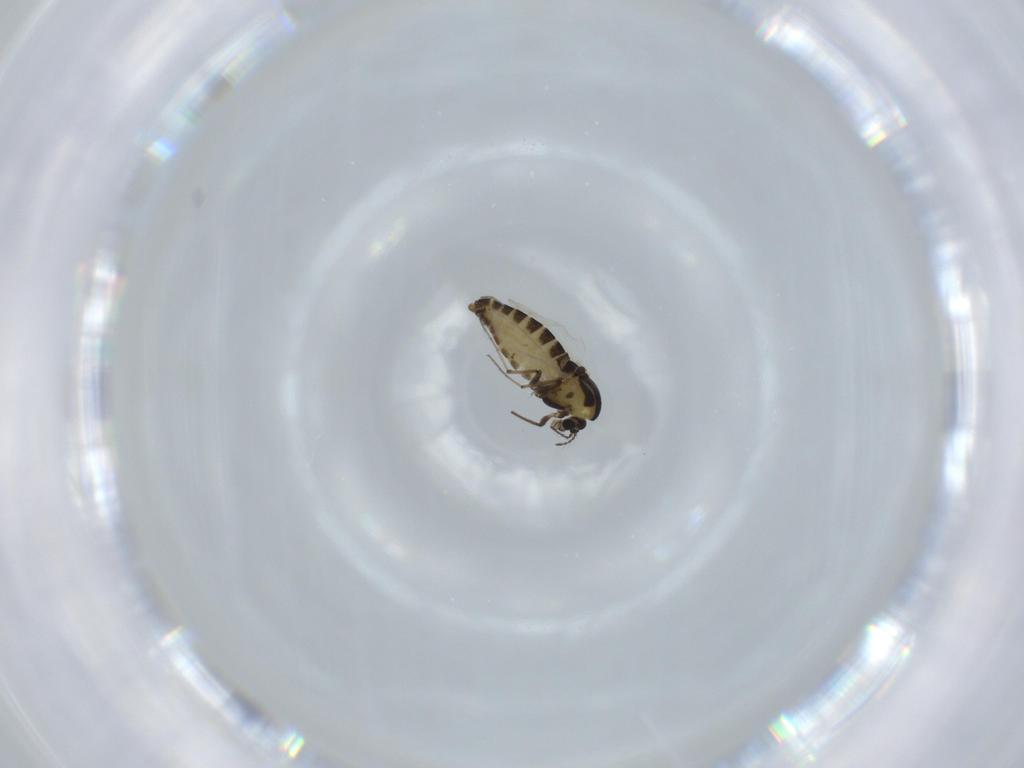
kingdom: Animalia
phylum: Arthropoda
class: Insecta
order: Diptera
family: Chironomidae
